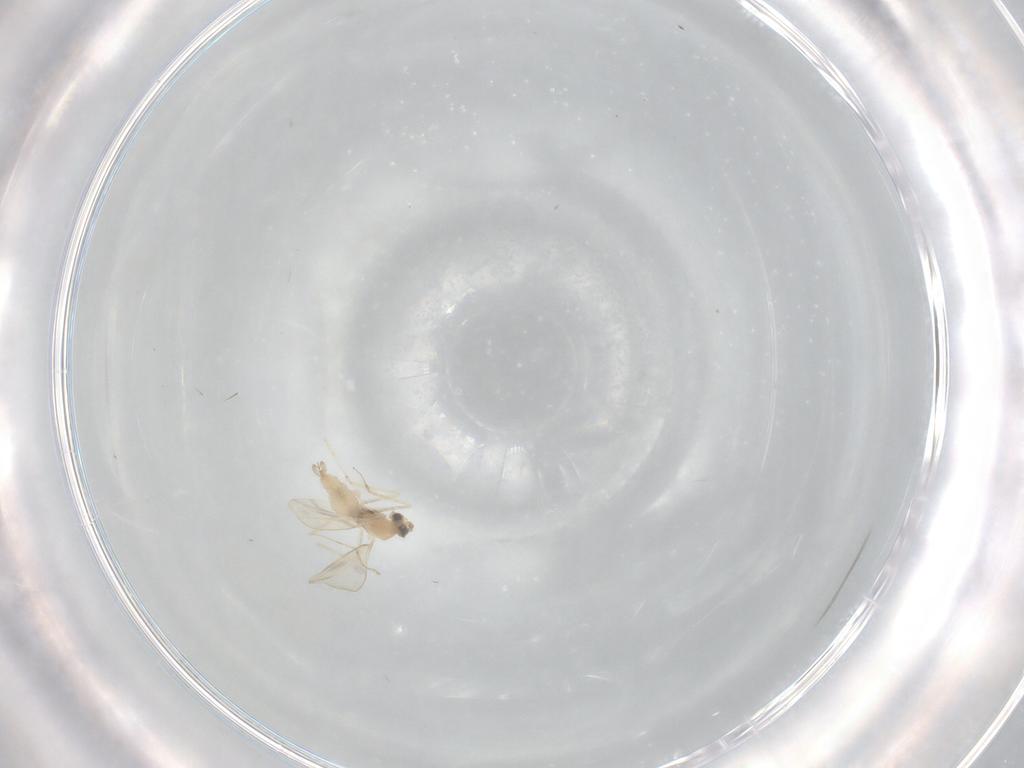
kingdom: Animalia
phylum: Arthropoda
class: Insecta
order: Diptera
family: Cecidomyiidae
